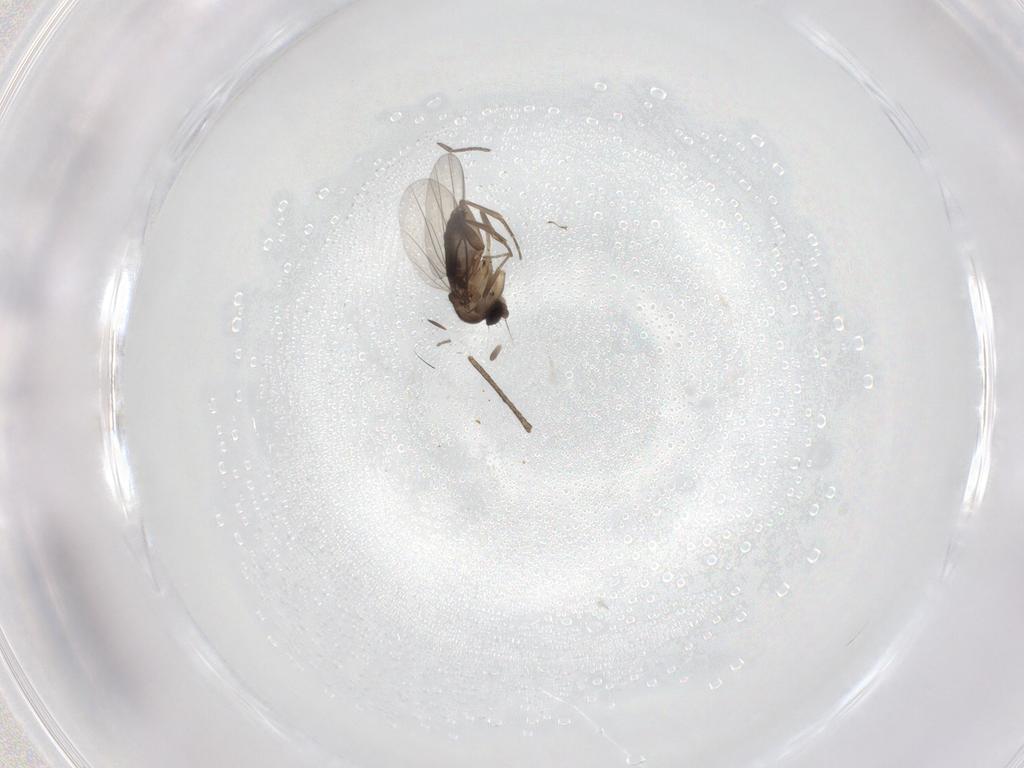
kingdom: Animalia
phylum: Arthropoda
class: Insecta
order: Diptera
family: Phoridae
